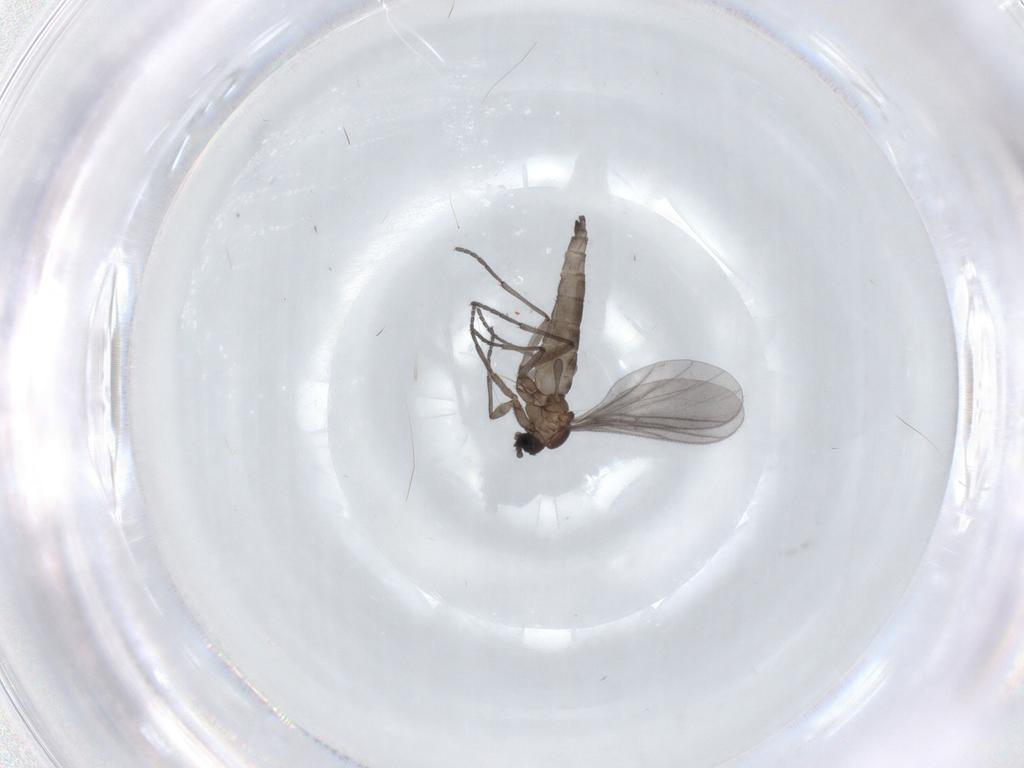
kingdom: Animalia
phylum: Arthropoda
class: Insecta
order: Diptera
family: Sciaridae
